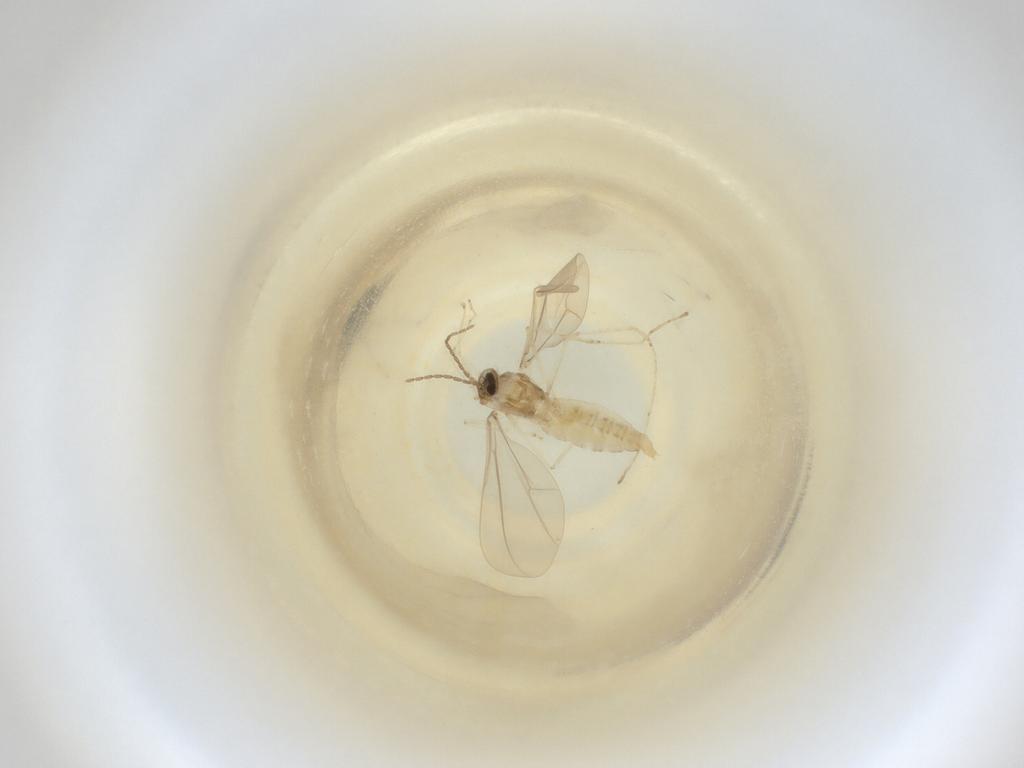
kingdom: Animalia
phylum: Arthropoda
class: Insecta
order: Diptera
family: Cecidomyiidae
